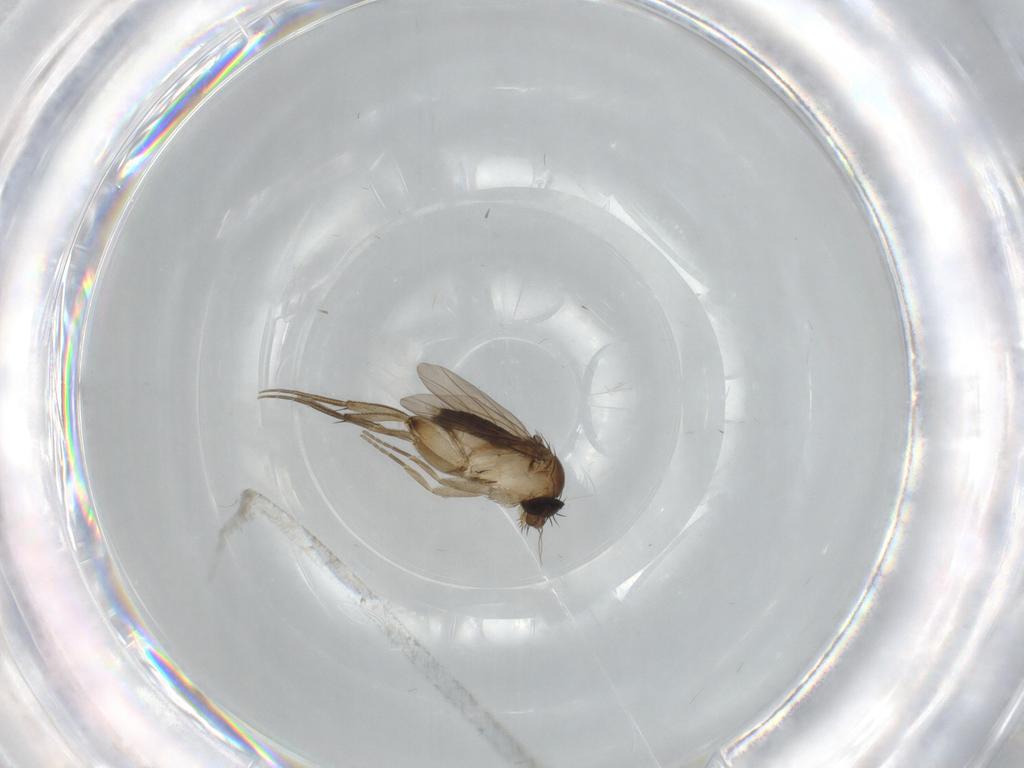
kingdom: Animalia
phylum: Arthropoda
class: Insecta
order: Diptera
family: Phoridae
